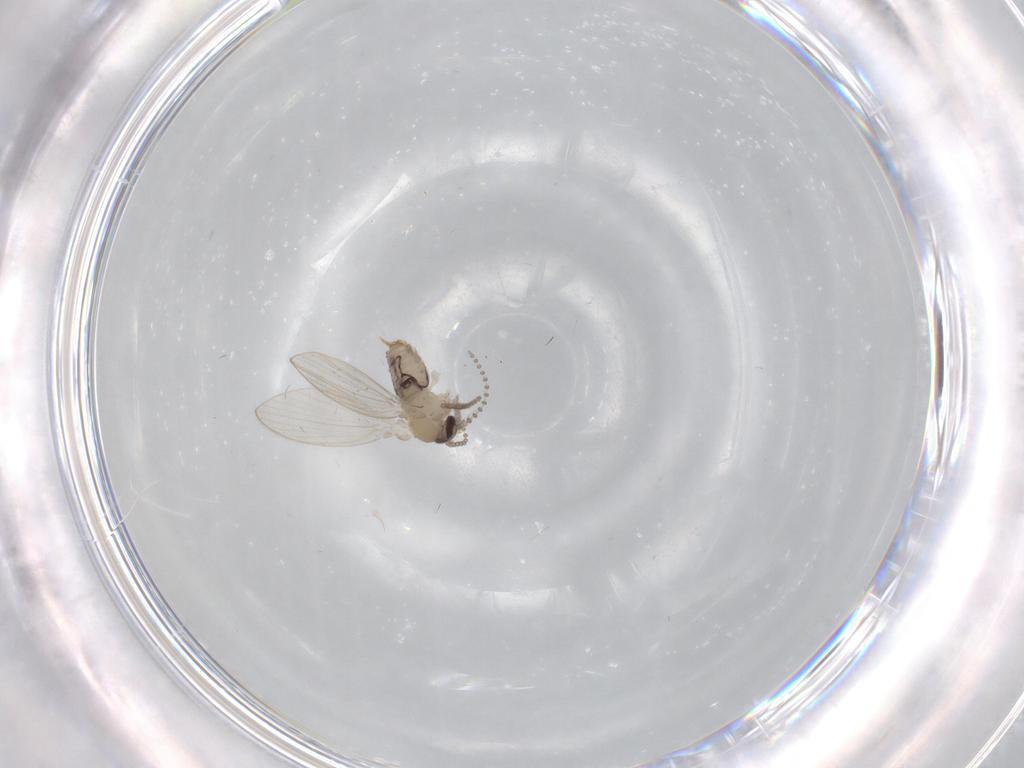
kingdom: Animalia
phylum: Arthropoda
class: Insecta
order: Diptera
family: Psychodidae
